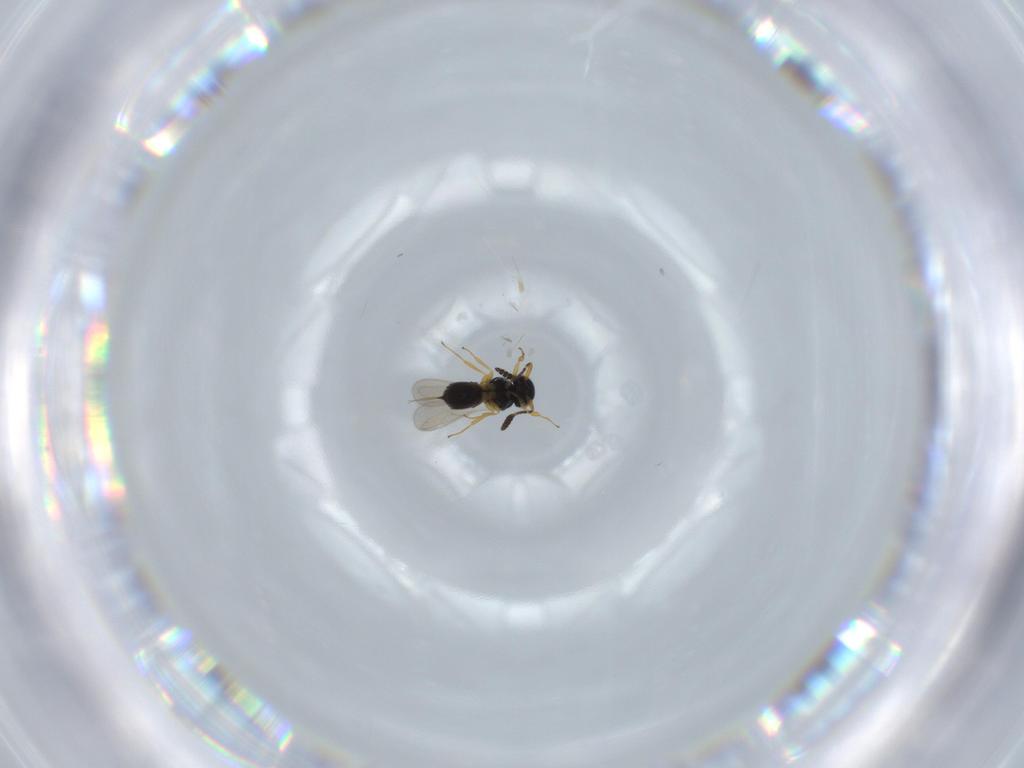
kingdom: Animalia
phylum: Arthropoda
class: Insecta
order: Hymenoptera
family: Scelionidae
